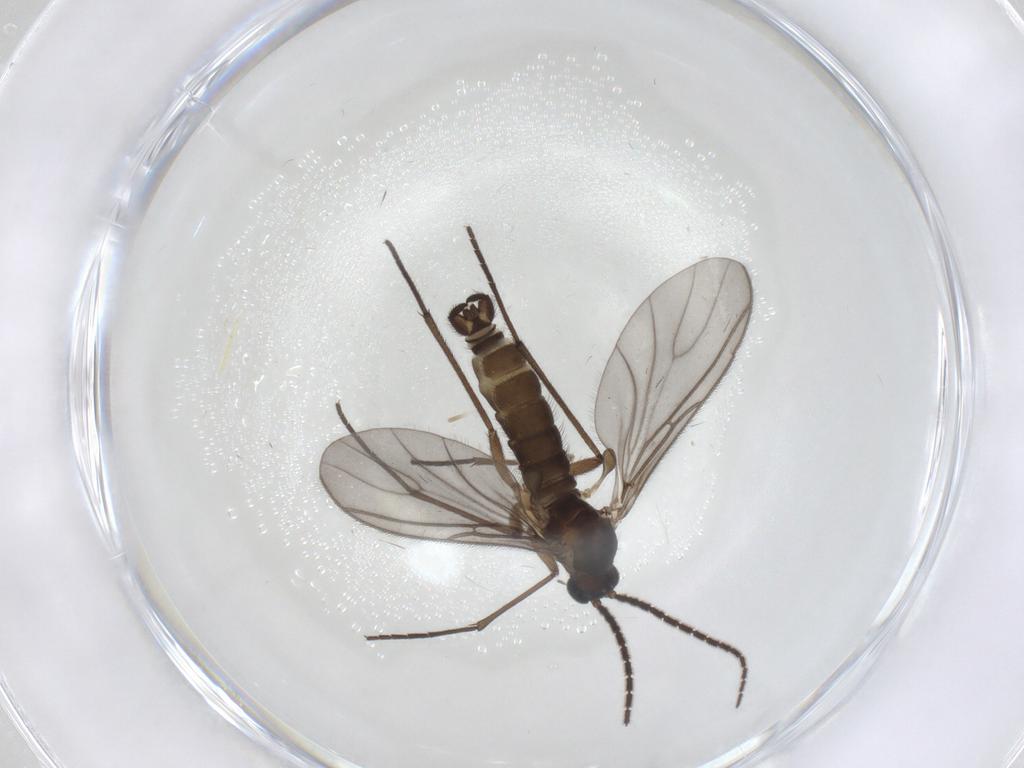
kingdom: Animalia
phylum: Arthropoda
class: Insecta
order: Diptera
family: Sciaridae
